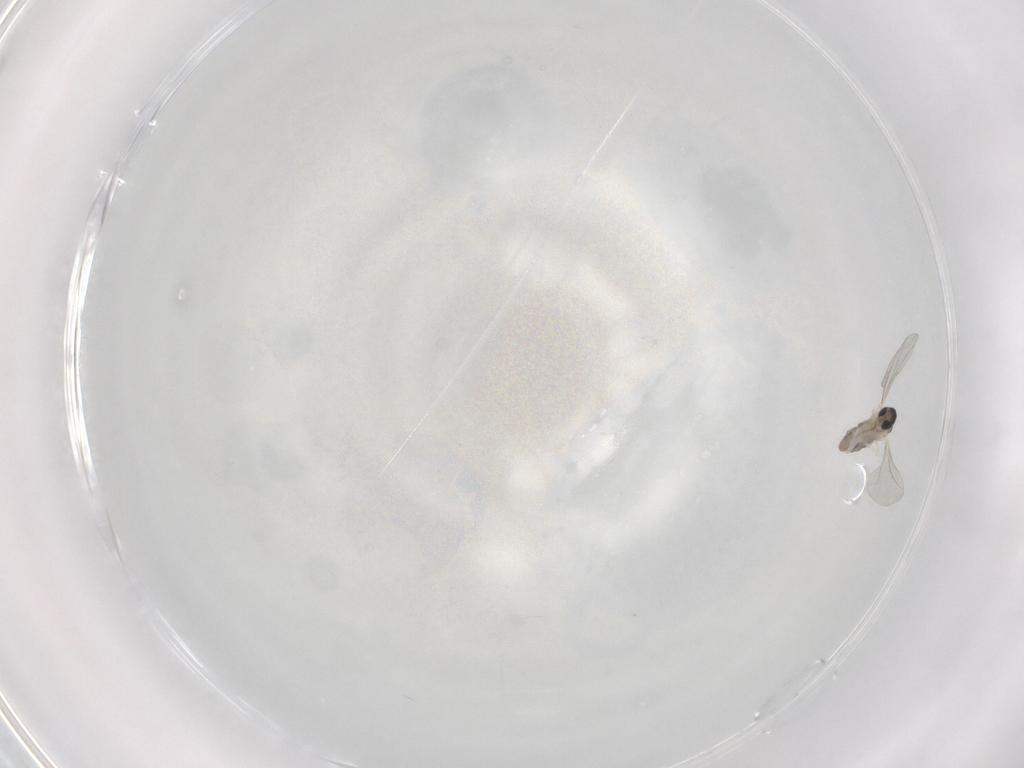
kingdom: Animalia
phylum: Arthropoda
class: Insecta
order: Diptera
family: Cecidomyiidae
